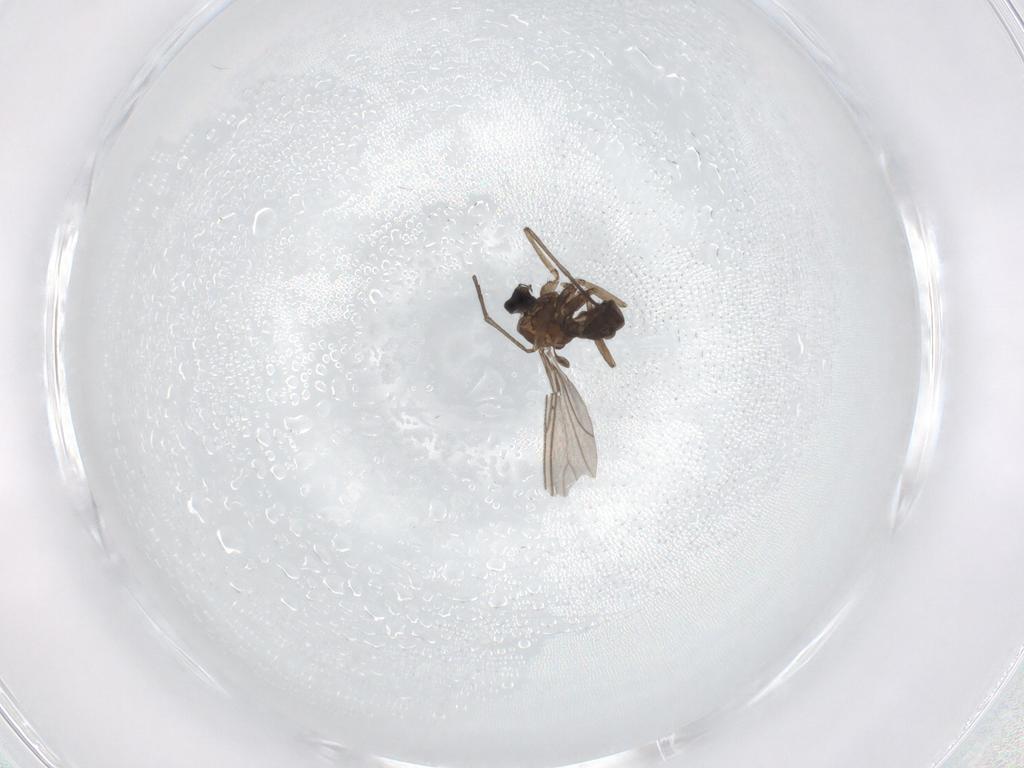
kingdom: Animalia
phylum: Arthropoda
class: Insecta
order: Diptera
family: Sciaridae
